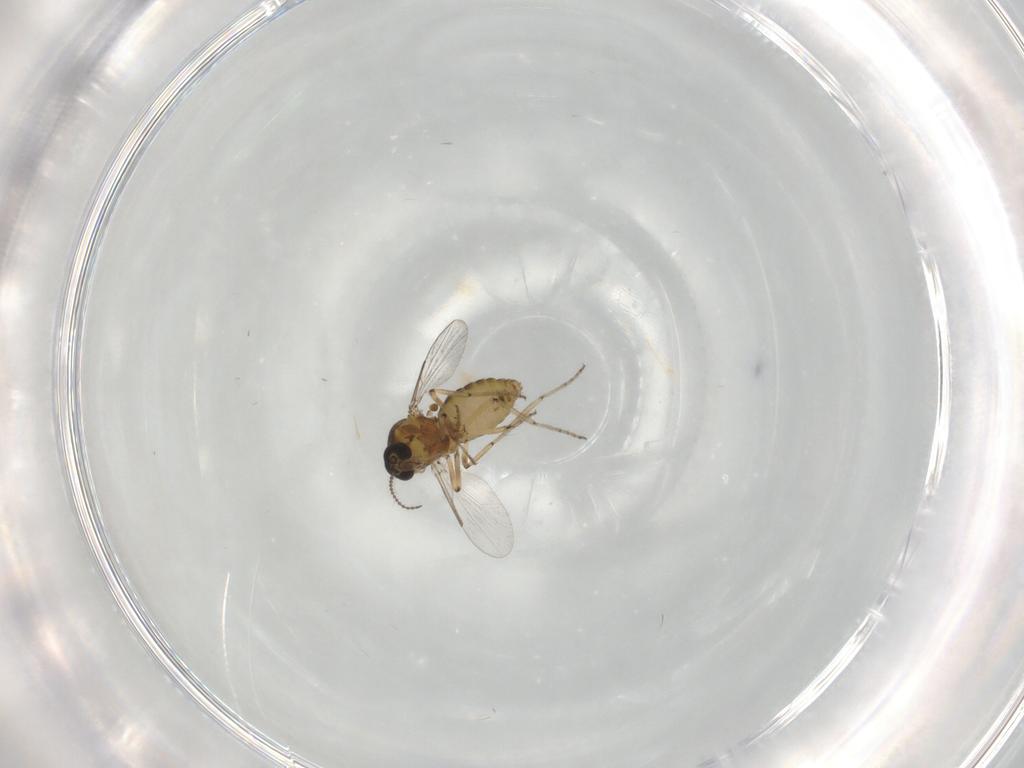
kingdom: Animalia
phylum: Arthropoda
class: Insecta
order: Diptera
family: Ceratopogonidae
